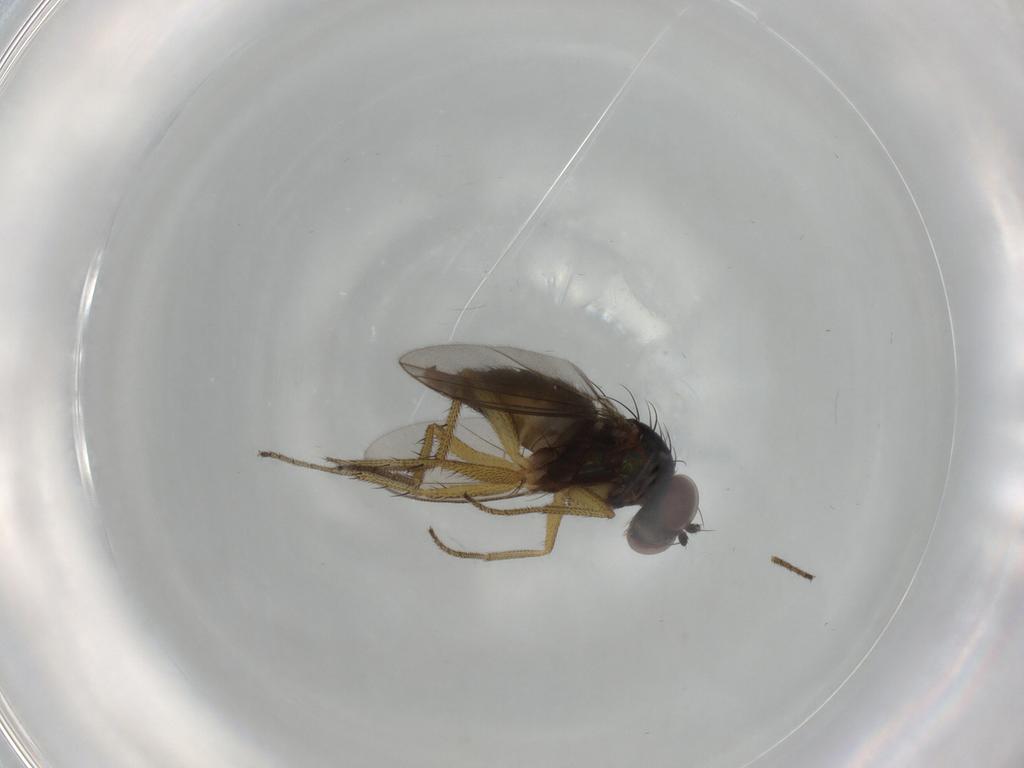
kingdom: Animalia
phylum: Arthropoda
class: Insecta
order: Diptera
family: Dolichopodidae
